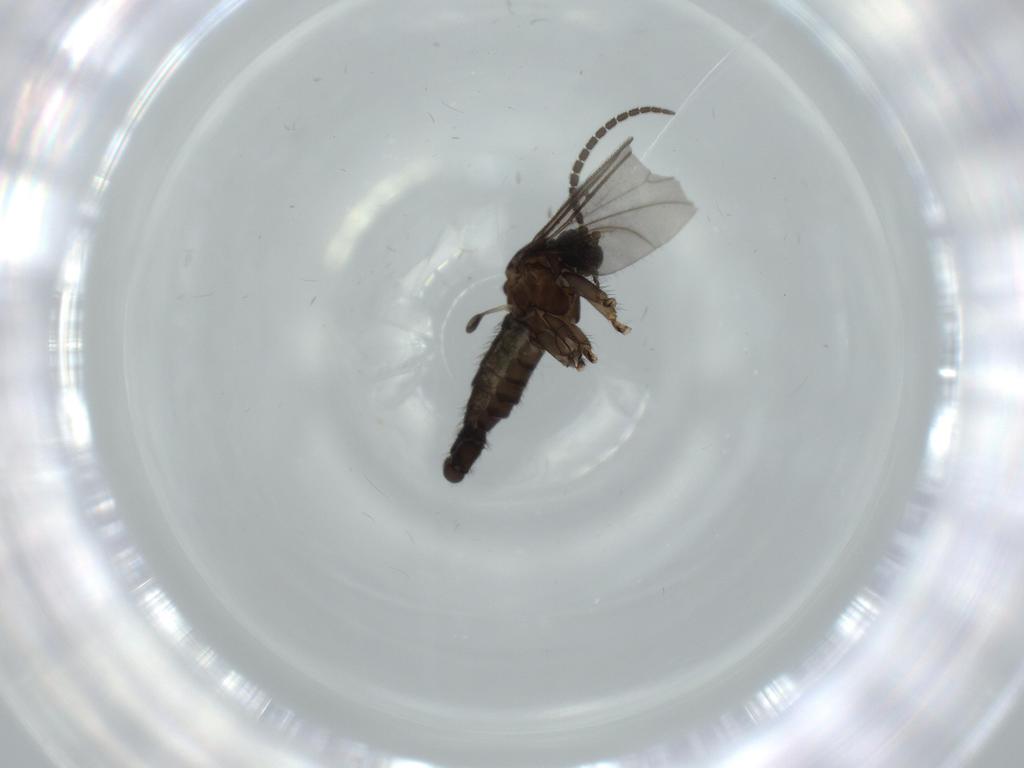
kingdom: Animalia
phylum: Arthropoda
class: Insecta
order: Diptera
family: Sciaridae
